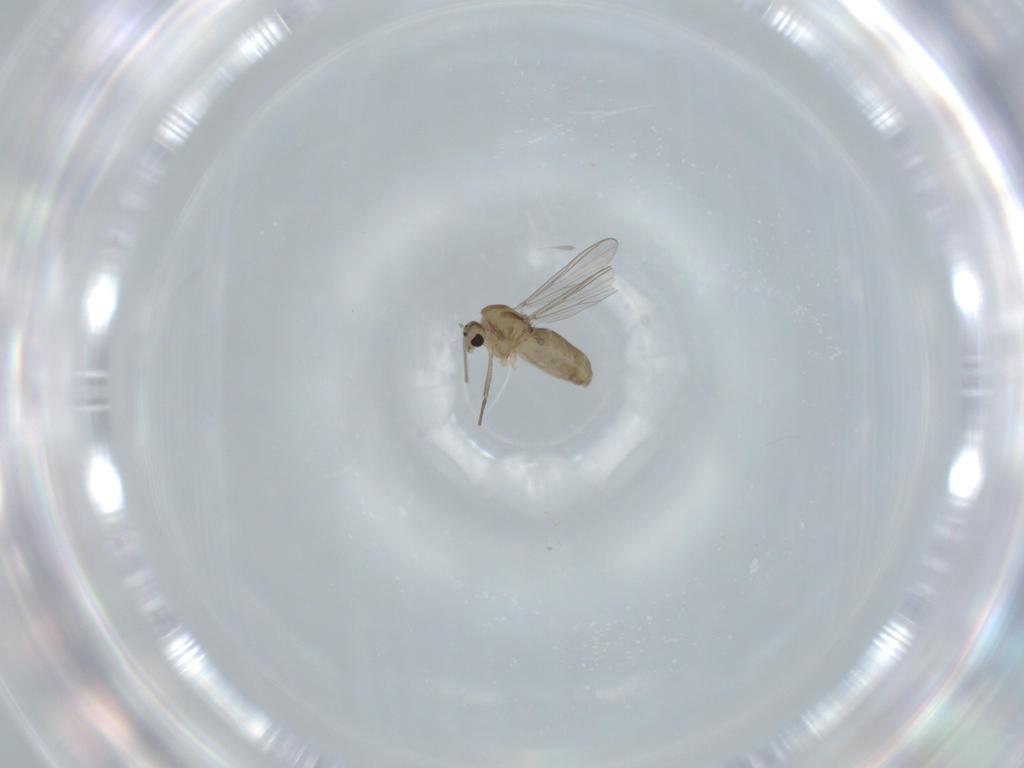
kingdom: Animalia
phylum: Arthropoda
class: Insecta
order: Diptera
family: Chironomidae
